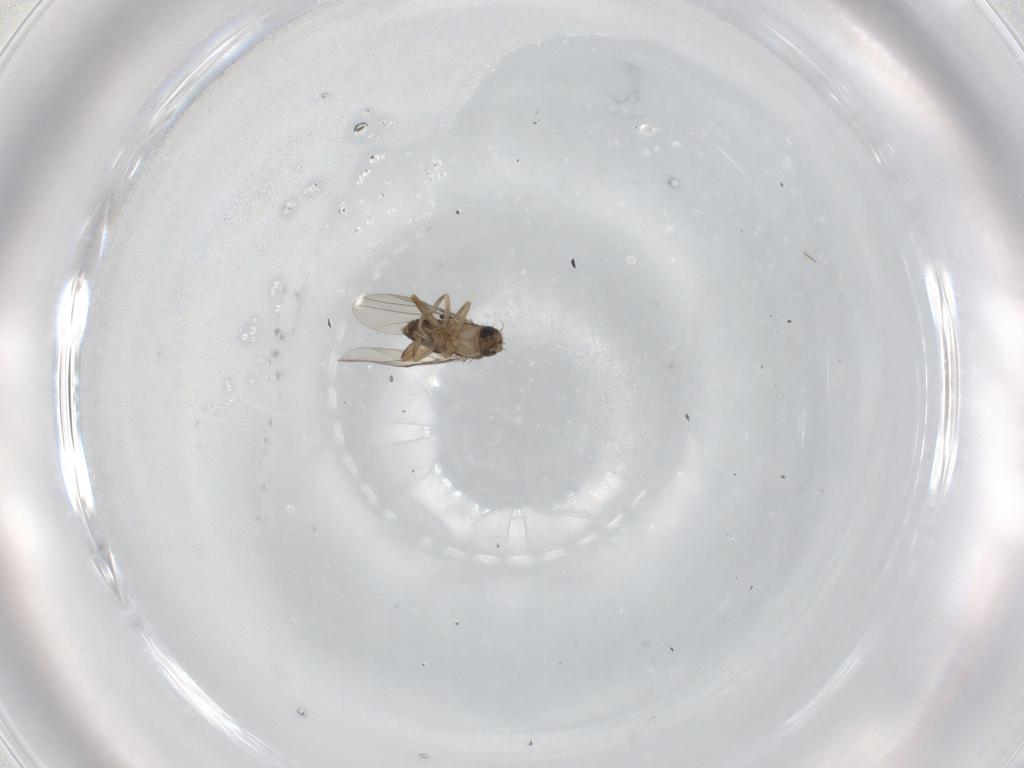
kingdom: Animalia
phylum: Arthropoda
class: Insecta
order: Diptera
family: Phoridae
